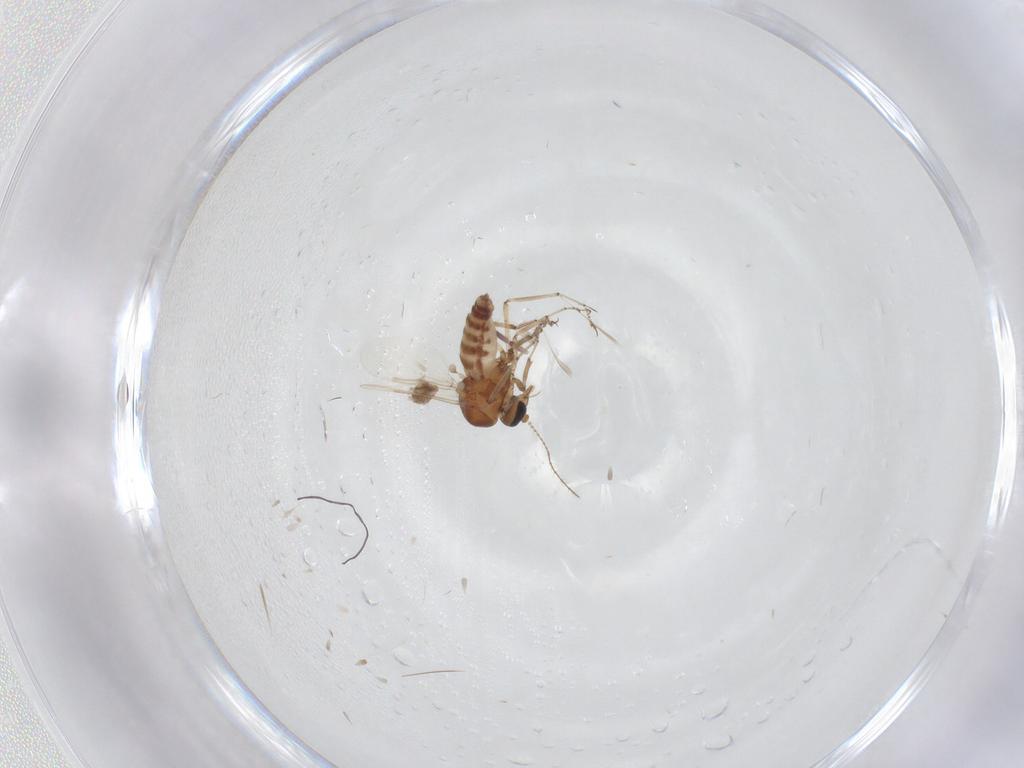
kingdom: Animalia
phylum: Arthropoda
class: Insecta
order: Diptera
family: Ceratopogonidae
